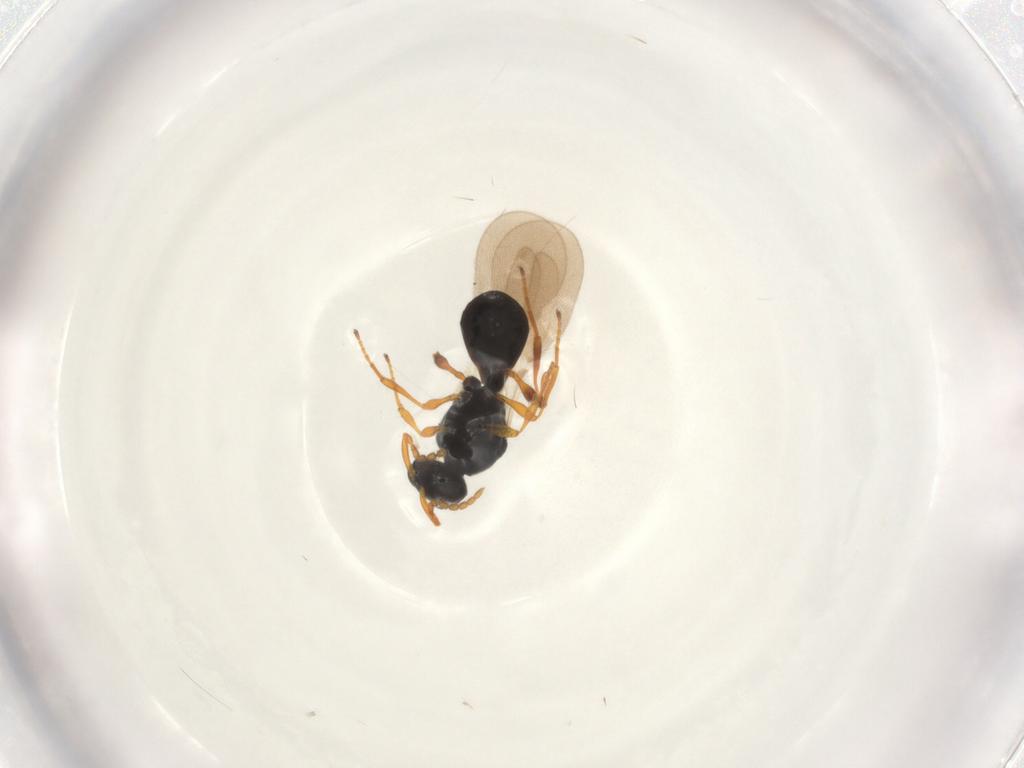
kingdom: Animalia
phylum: Arthropoda
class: Insecta
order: Hymenoptera
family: Platygastridae
